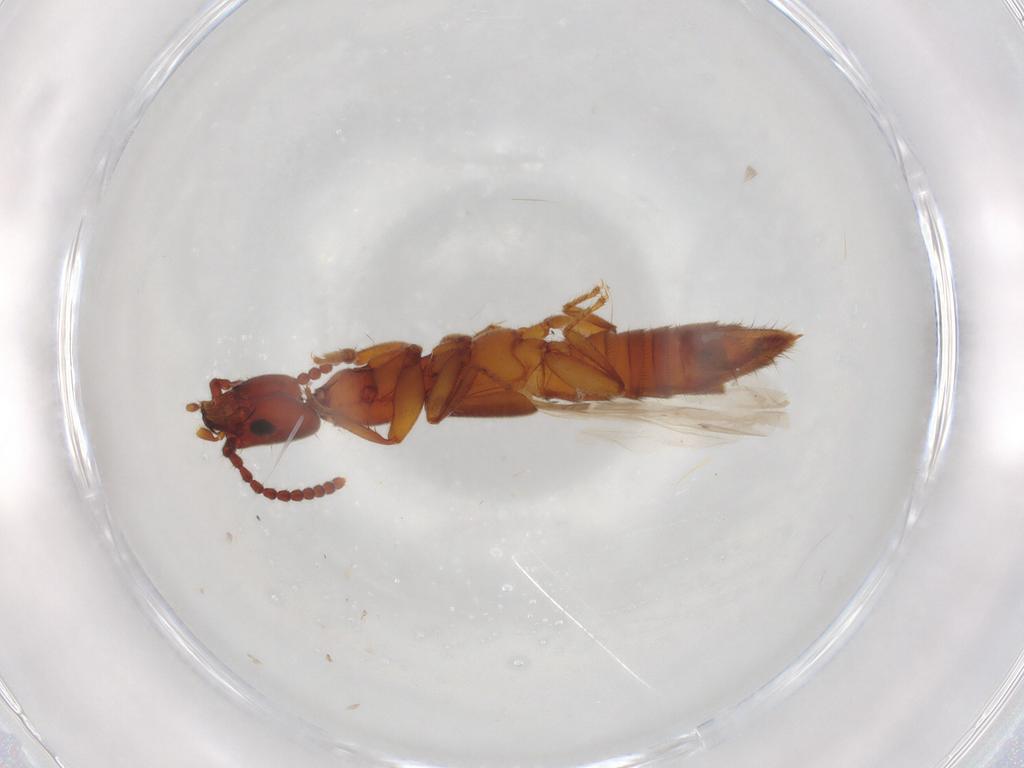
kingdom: Animalia
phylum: Arthropoda
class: Insecta
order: Coleoptera
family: Staphylinidae
